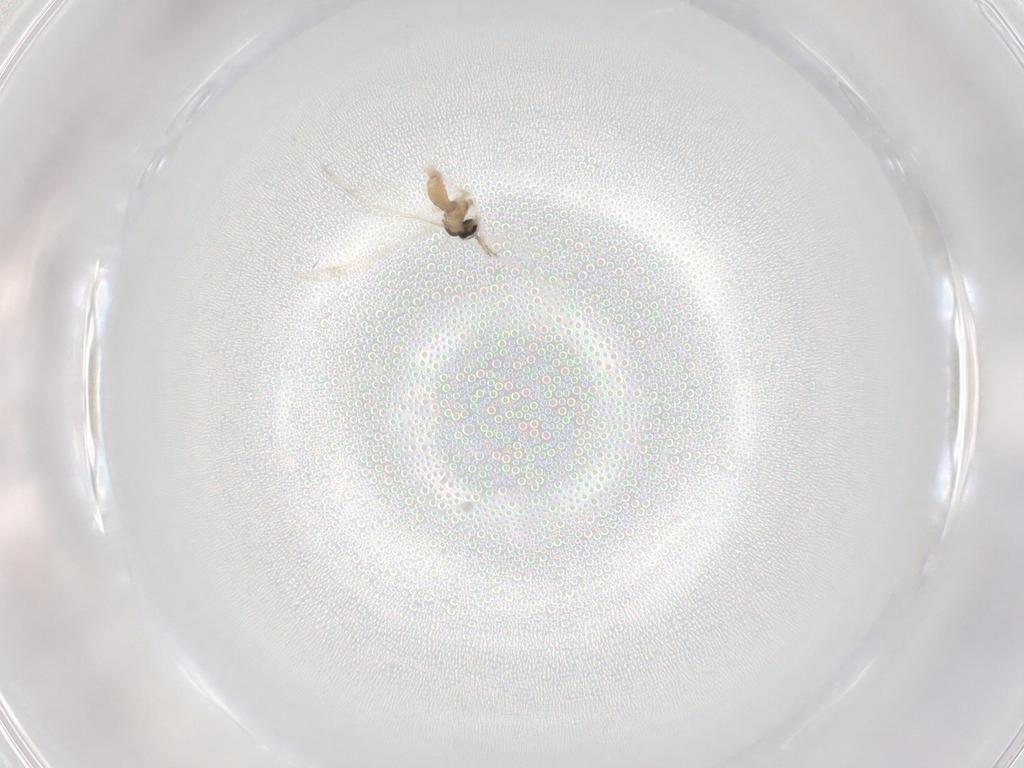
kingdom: Animalia
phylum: Arthropoda
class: Insecta
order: Diptera
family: Cecidomyiidae
